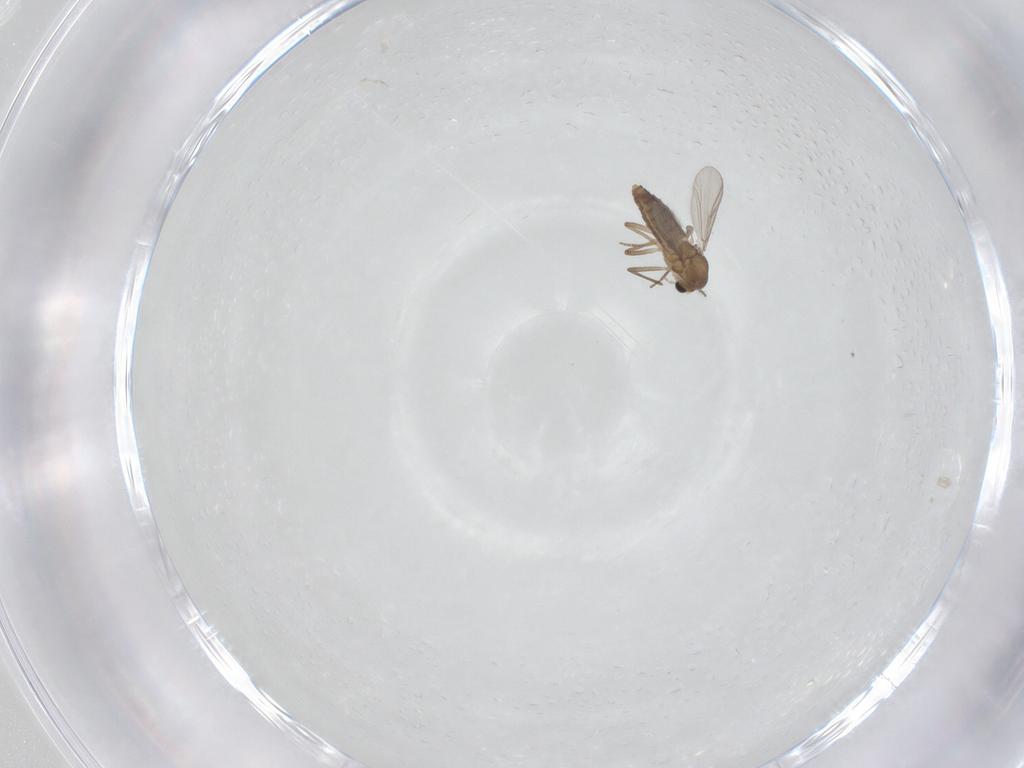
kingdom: Animalia
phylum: Arthropoda
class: Insecta
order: Diptera
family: Chironomidae
